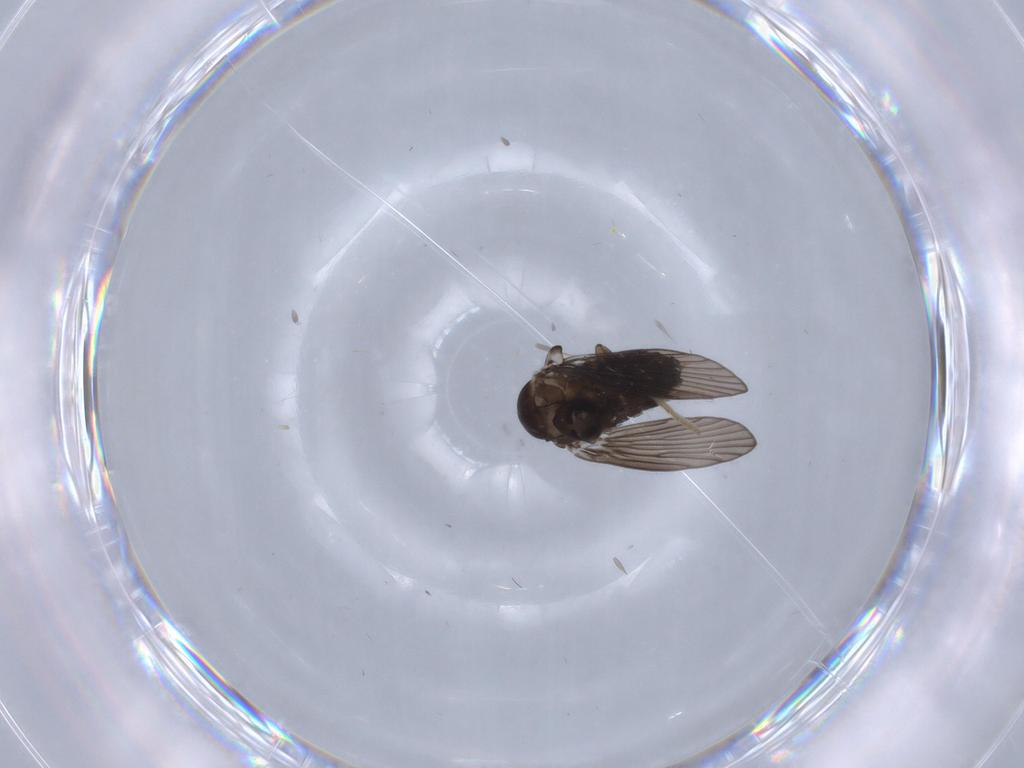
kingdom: Animalia
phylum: Arthropoda
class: Insecta
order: Diptera
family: Psychodidae
